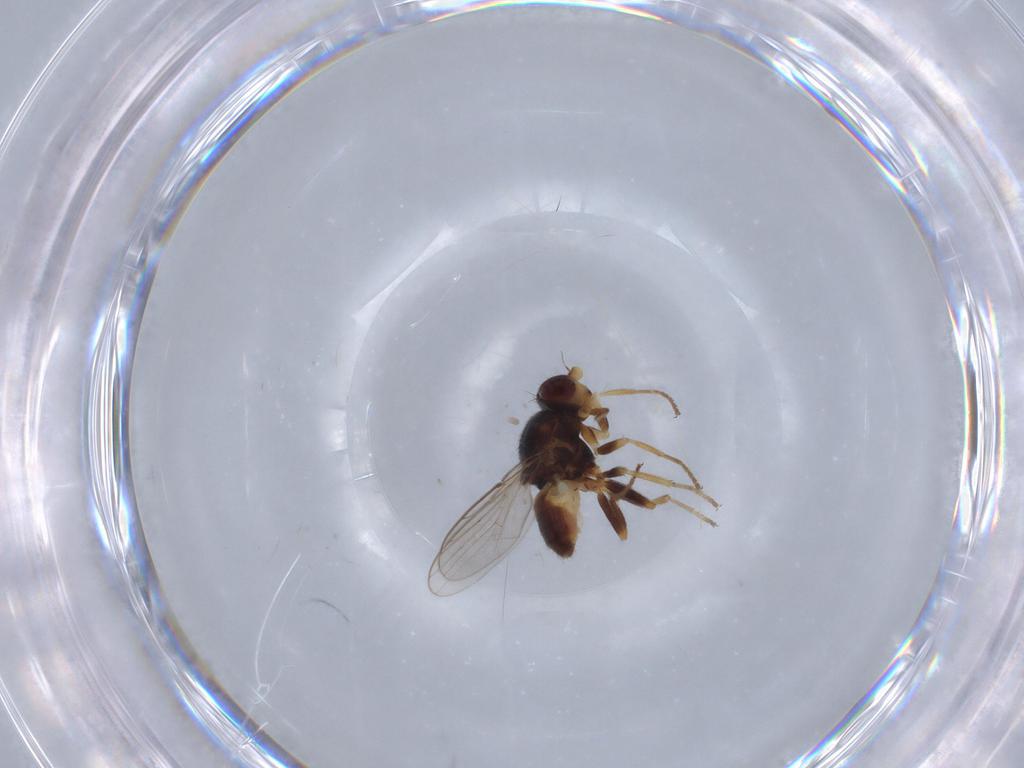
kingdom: Animalia
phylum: Arthropoda
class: Insecta
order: Diptera
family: Chloropidae
